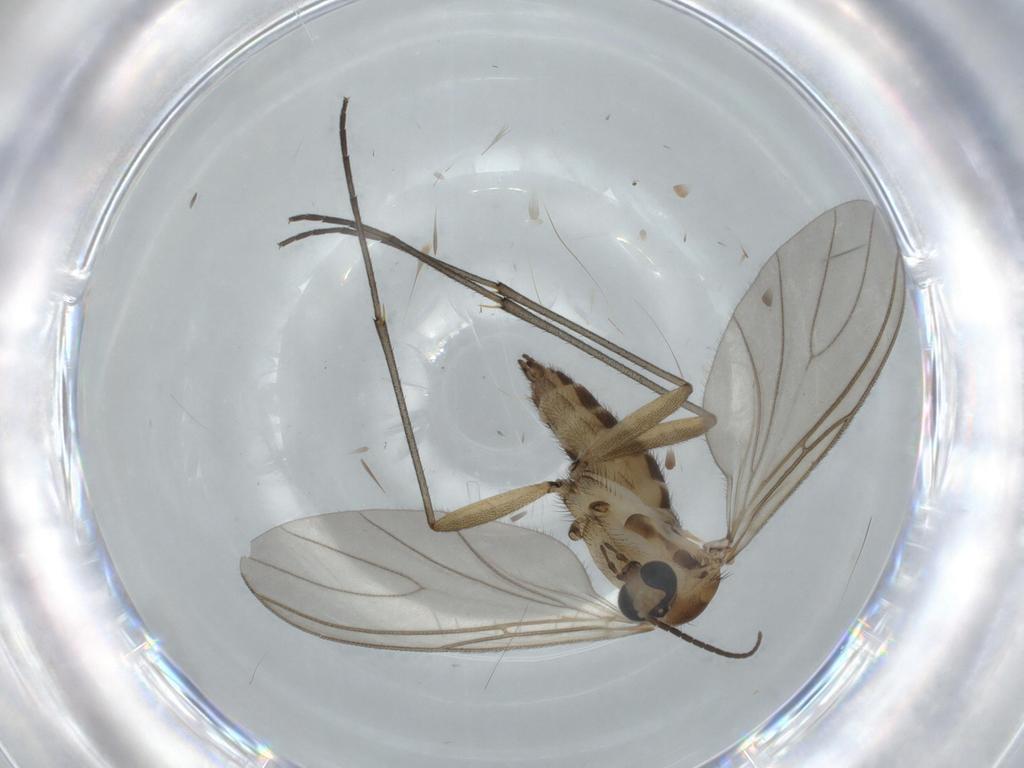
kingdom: Animalia
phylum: Arthropoda
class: Insecta
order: Diptera
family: Sciaridae
